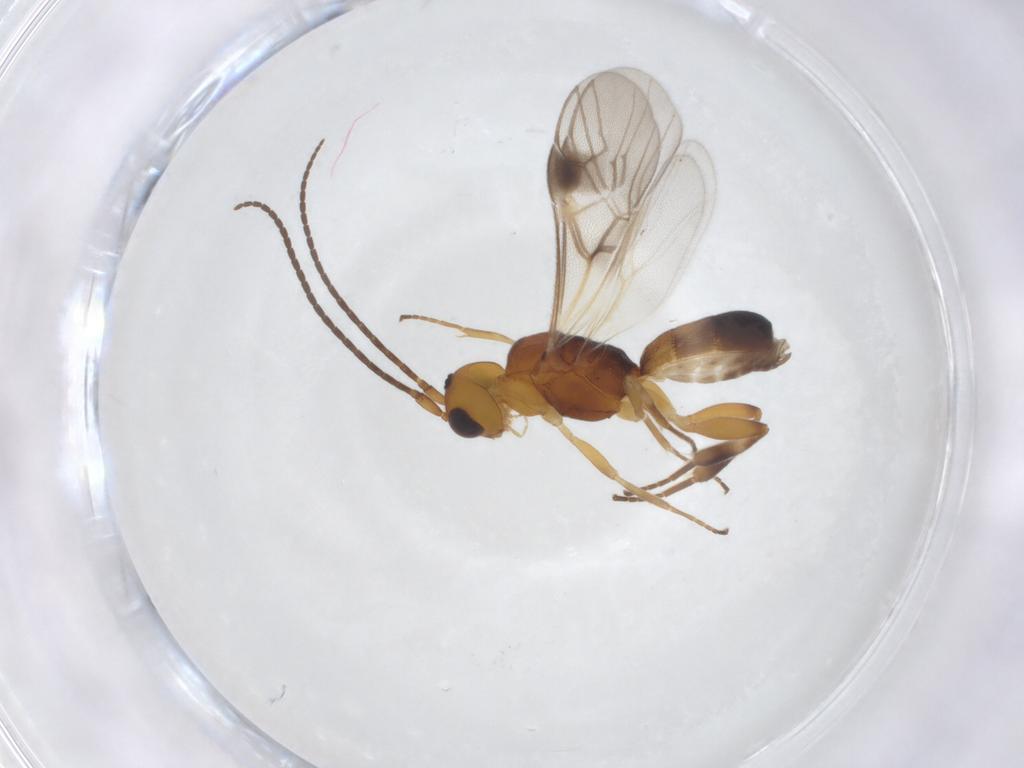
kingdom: Animalia
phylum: Arthropoda
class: Insecta
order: Hymenoptera
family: Braconidae
